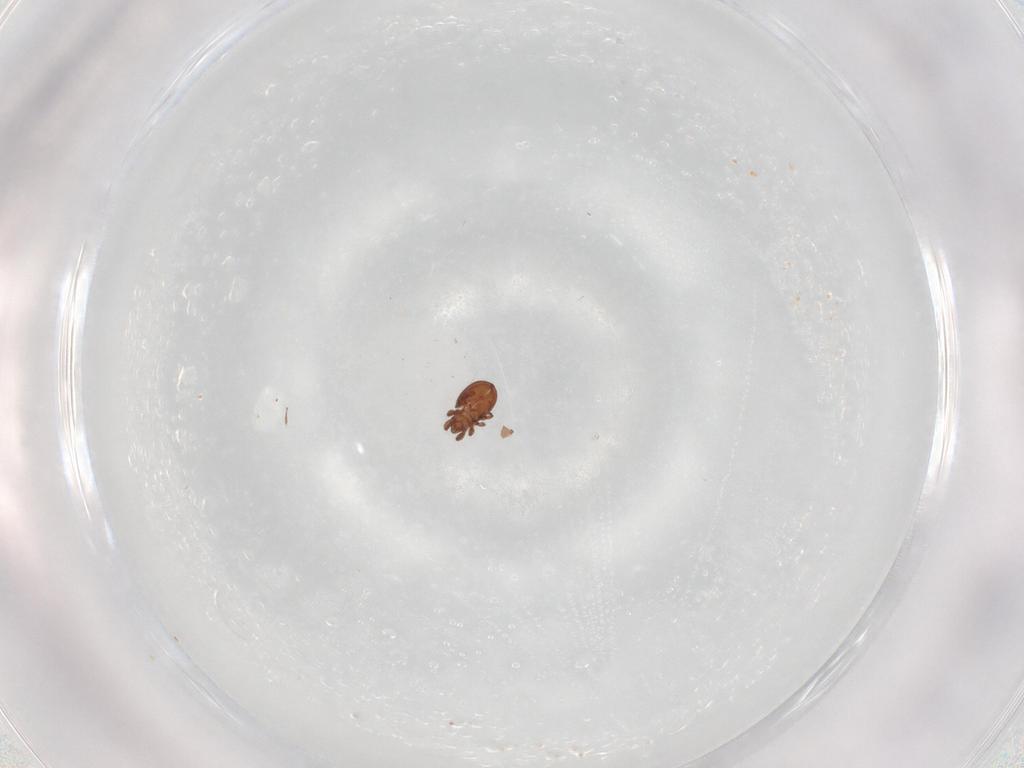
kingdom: Animalia
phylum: Arthropoda
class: Arachnida
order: Sarcoptiformes
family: Eremaeidae
